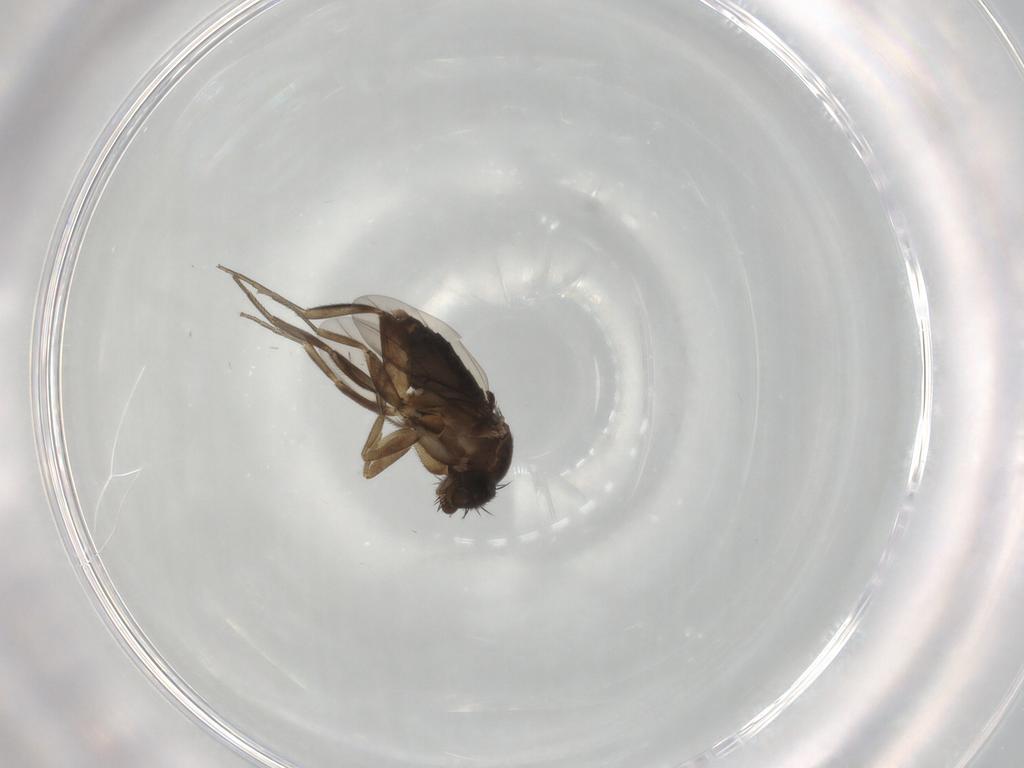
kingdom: Animalia
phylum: Arthropoda
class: Insecta
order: Diptera
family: Phoridae
